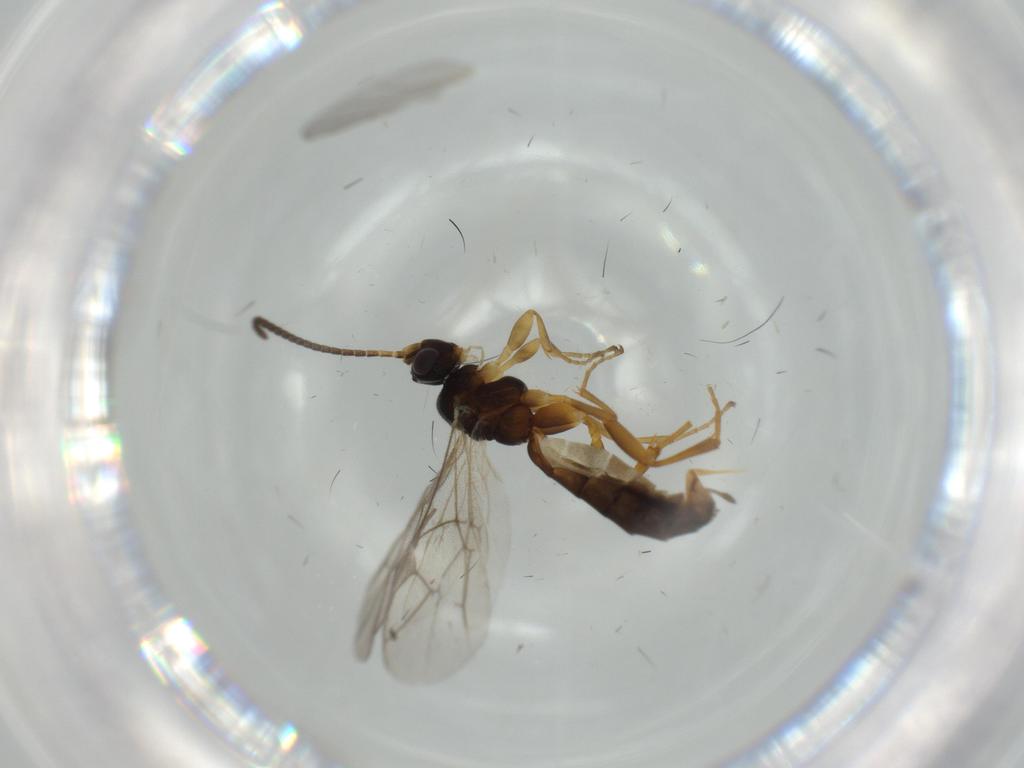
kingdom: Animalia
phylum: Arthropoda
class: Insecta
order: Hymenoptera
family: Ichneumonidae
